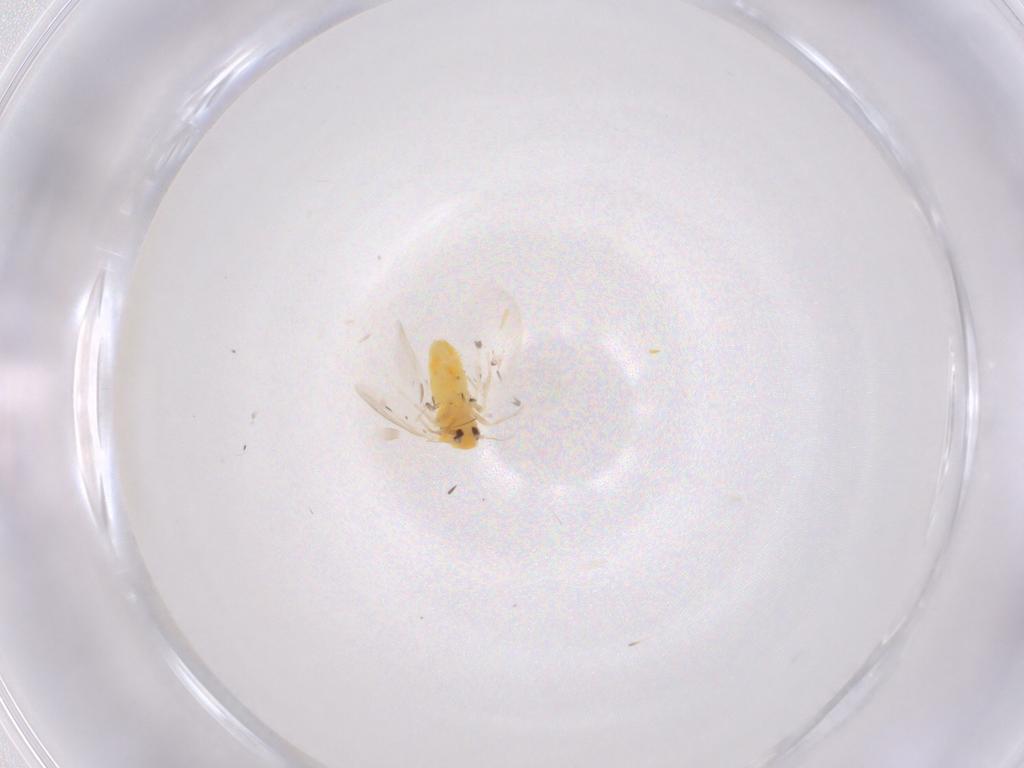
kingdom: Animalia
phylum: Arthropoda
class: Insecta
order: Hemiptera
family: Aleyrodidae
